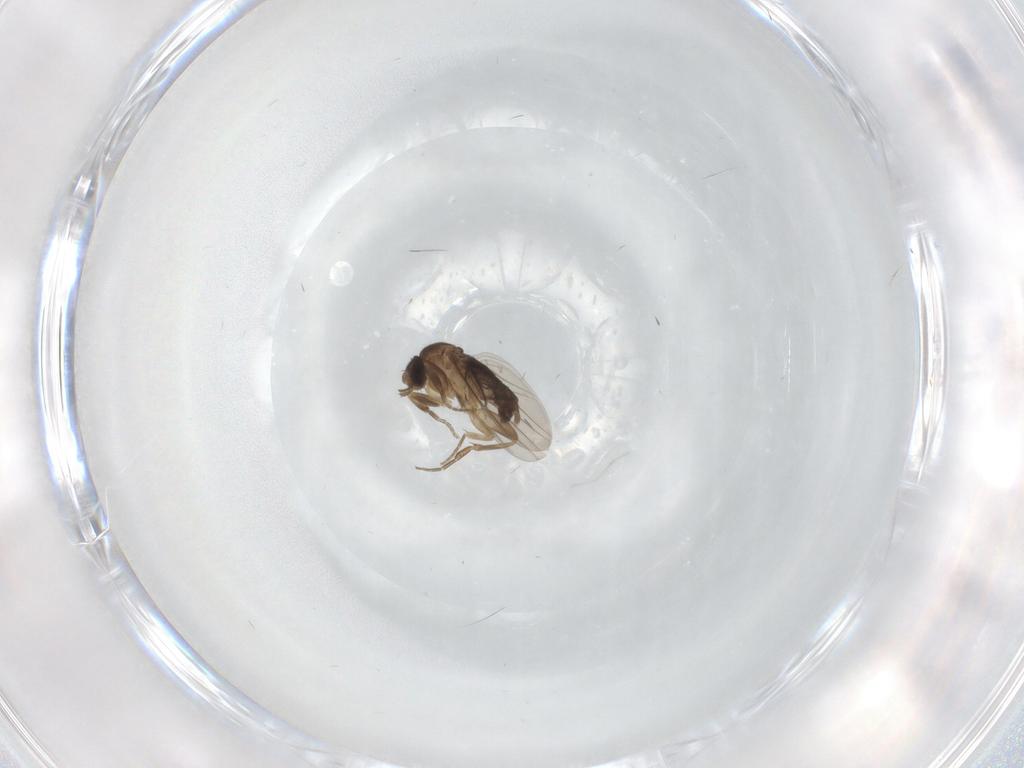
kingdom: Animalia
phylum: Arthropoda
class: Insecta
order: Diptera
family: Phoridae
